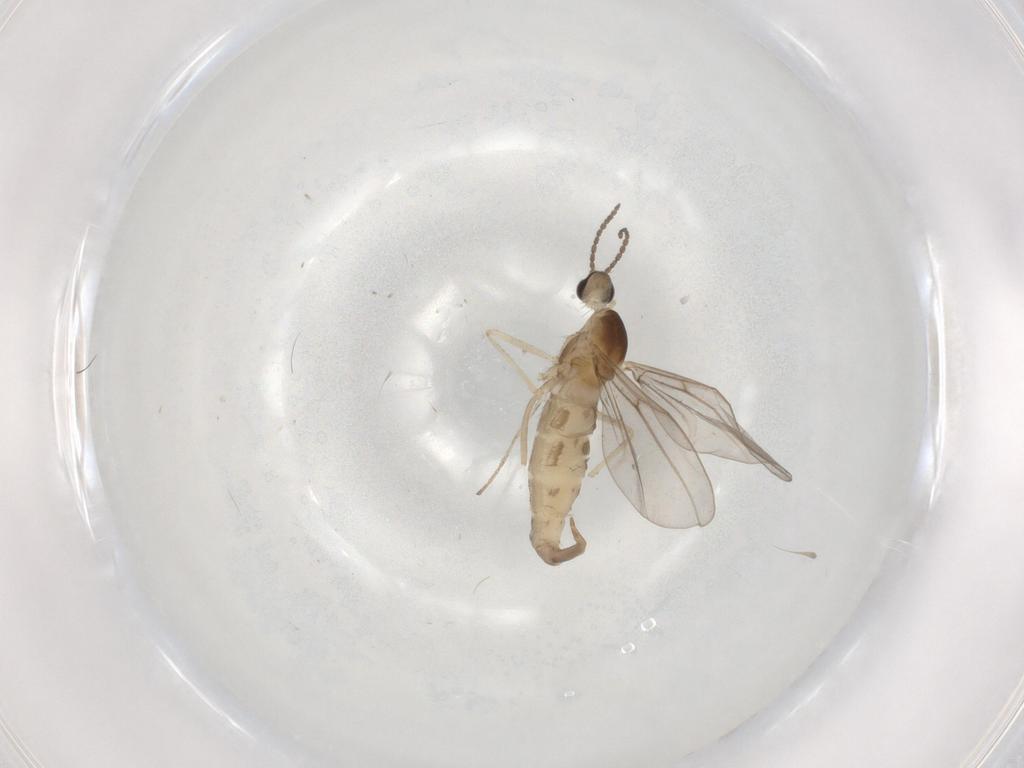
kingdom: Animalia
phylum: Arthropoda
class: Insecta
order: Diptera
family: Cecidomyiidae
